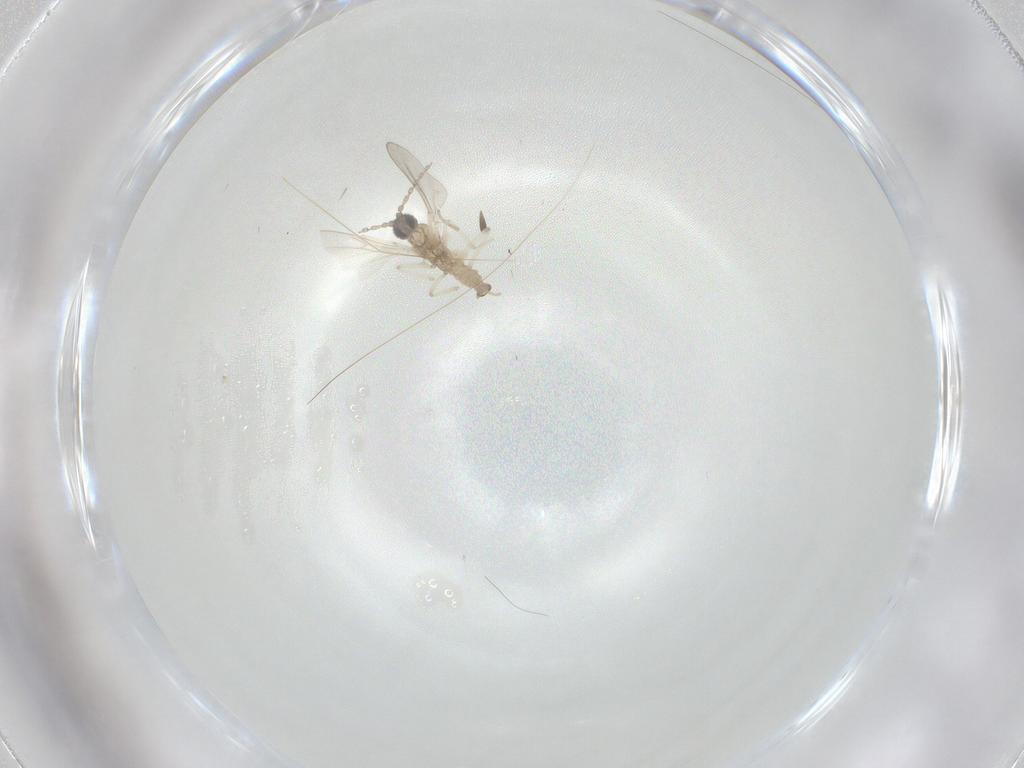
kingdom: Animalia
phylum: Arthropoda
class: Insecta
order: Diptera
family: Cecidomyiidae
